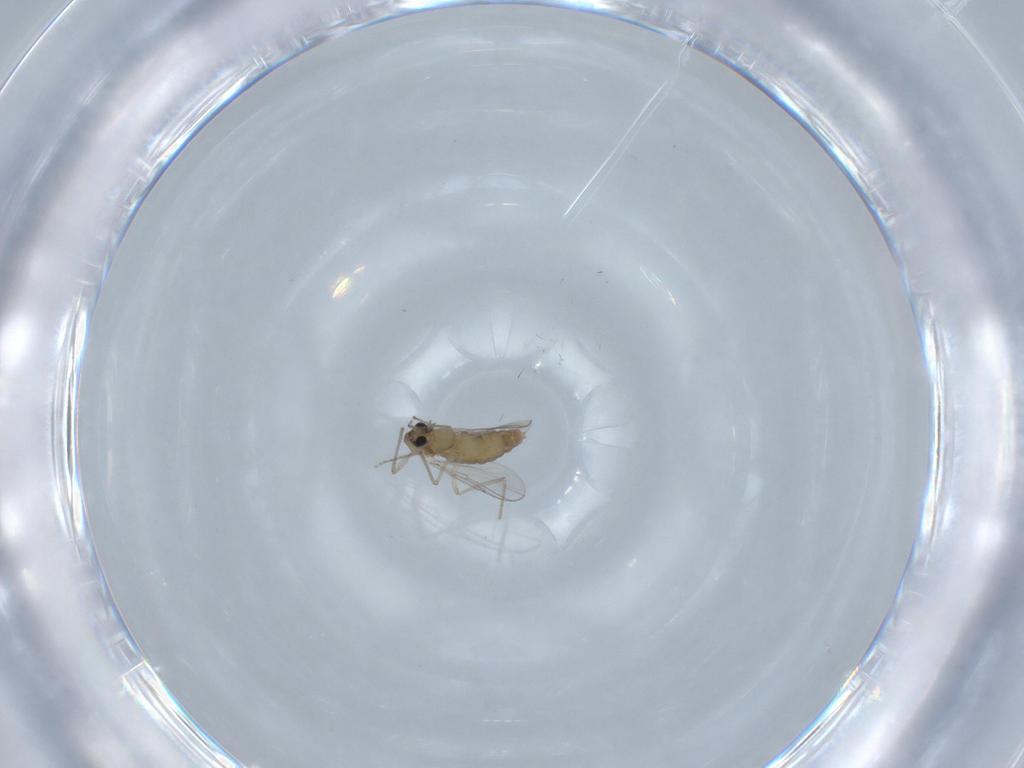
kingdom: Animalia
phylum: Arthropoda
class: Insecta
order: Diptera
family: Chironomidae
